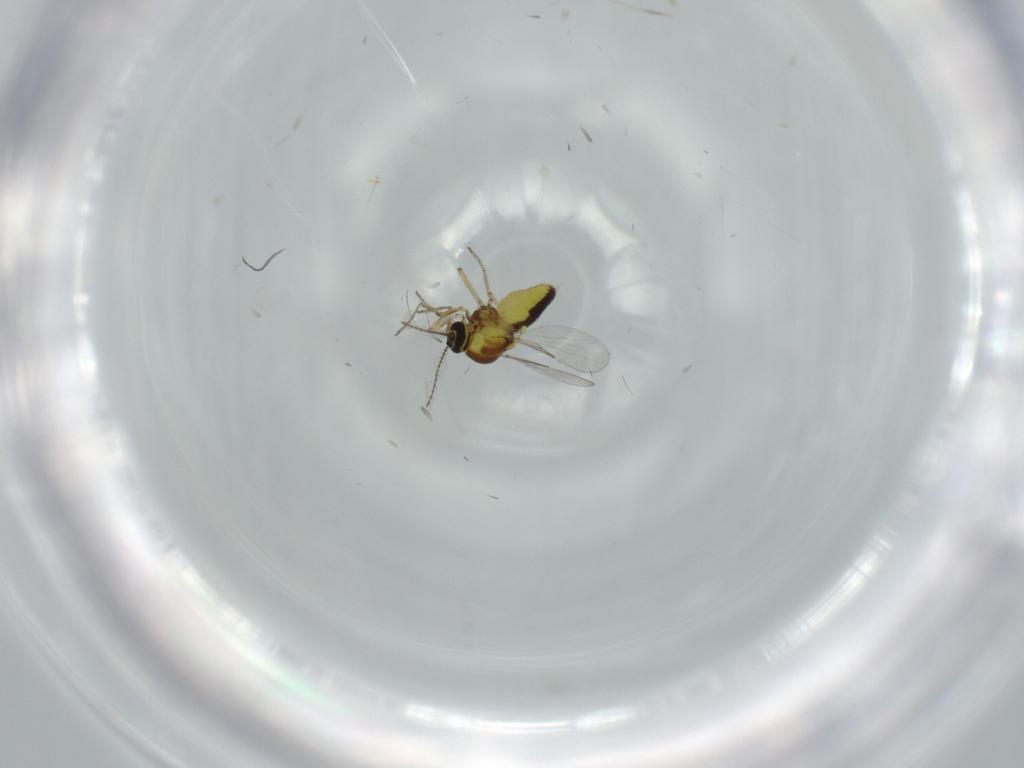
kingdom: Animalia
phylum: Arthropoda
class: Insecta
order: Diptera
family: Ceratopogonidae
